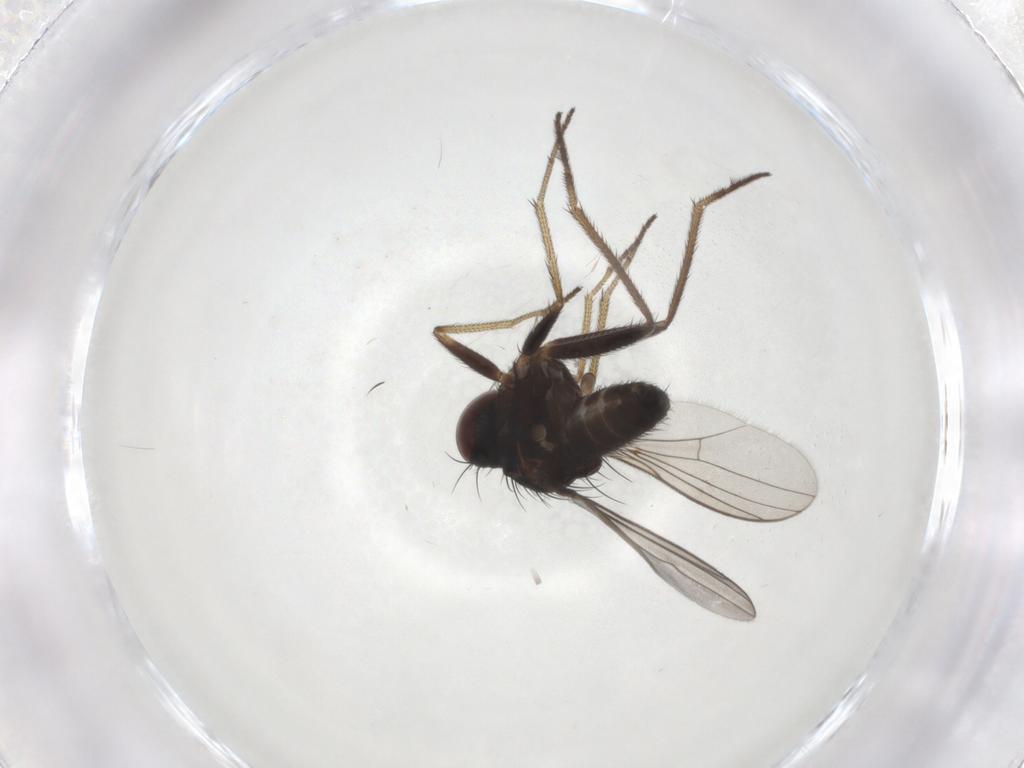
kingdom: Animalia
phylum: Arthropoda
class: Insecta
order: Diptera
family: Dolichopodidae
